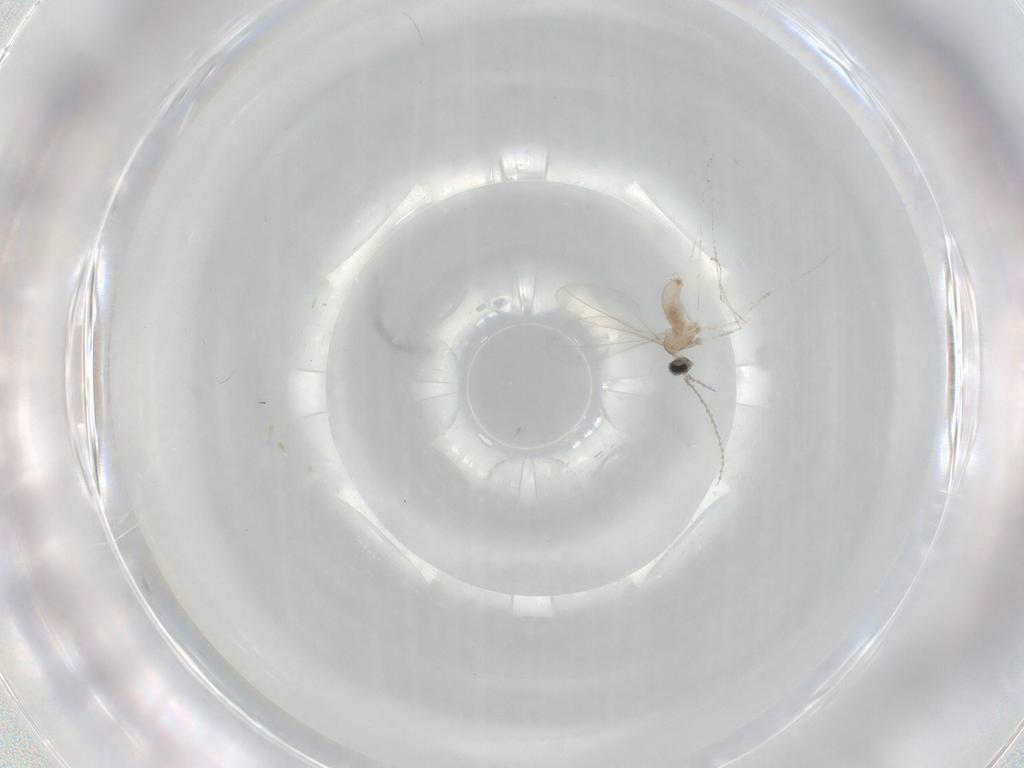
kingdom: Animalia
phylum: Arthropoda
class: Insecta
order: Diptera
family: Cecidomyiidae
